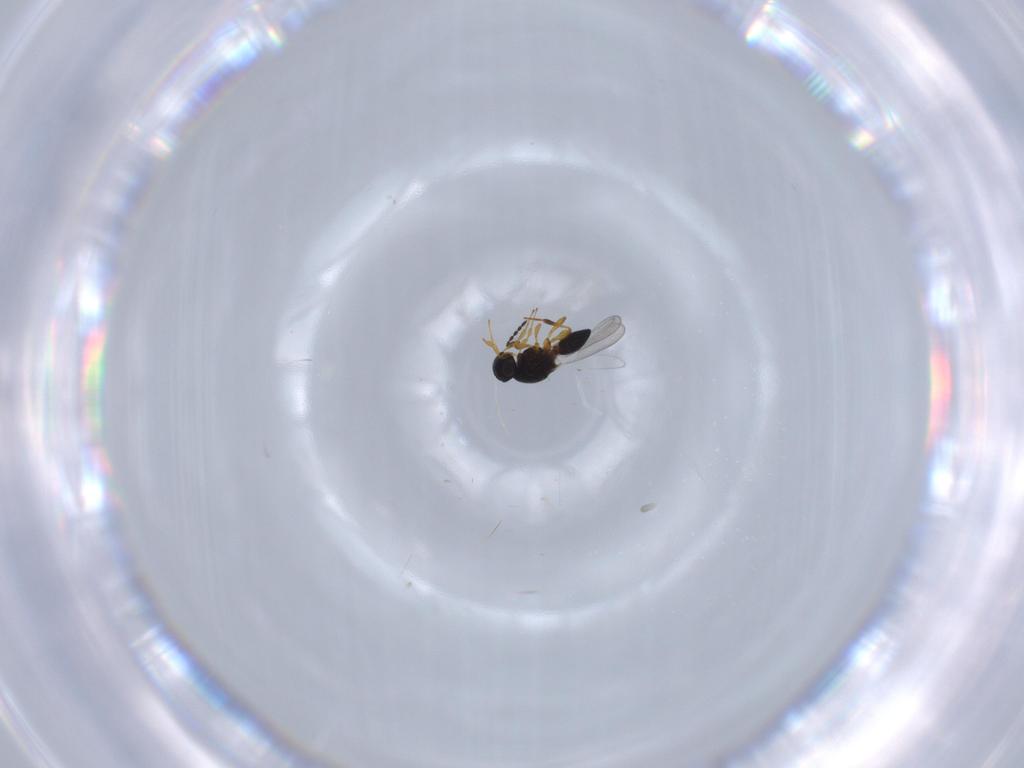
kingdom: Animalia
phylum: Arthropoda
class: Insecta
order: Hymenoptera
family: Platygastridae
